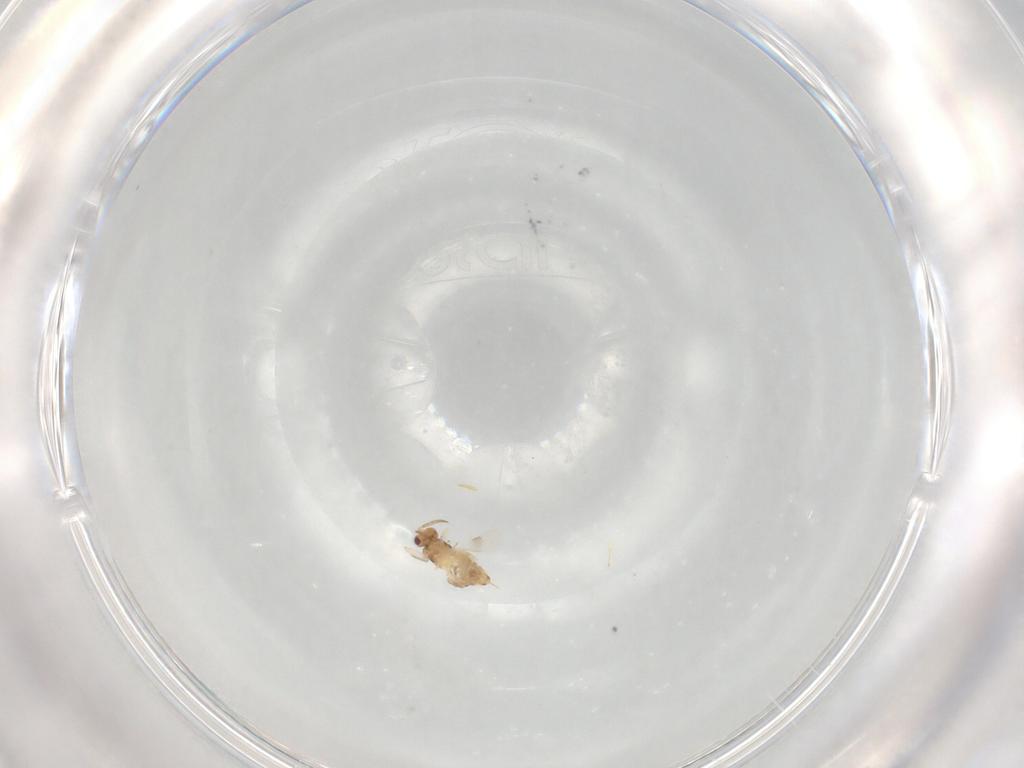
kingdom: Animalia
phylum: Arthropoda
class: Insecta
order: Hymenoptera
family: Aphelinidae
